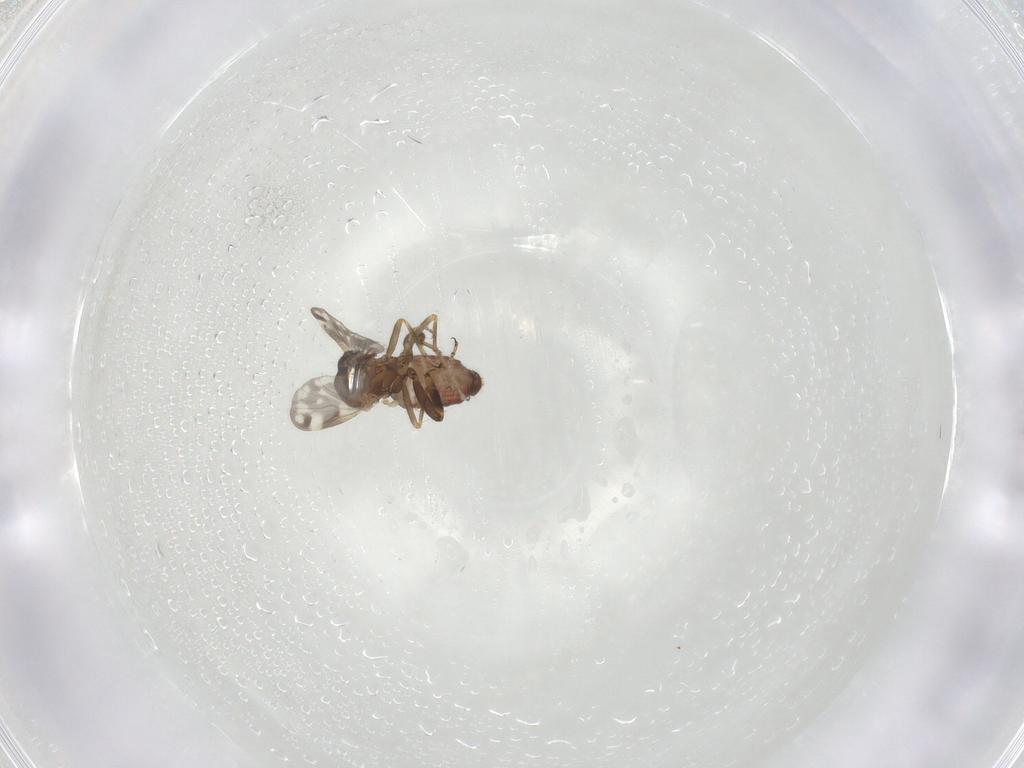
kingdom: Animalia
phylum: Arthropoda
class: Insecta
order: Diptera
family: Ceratopogonidae
